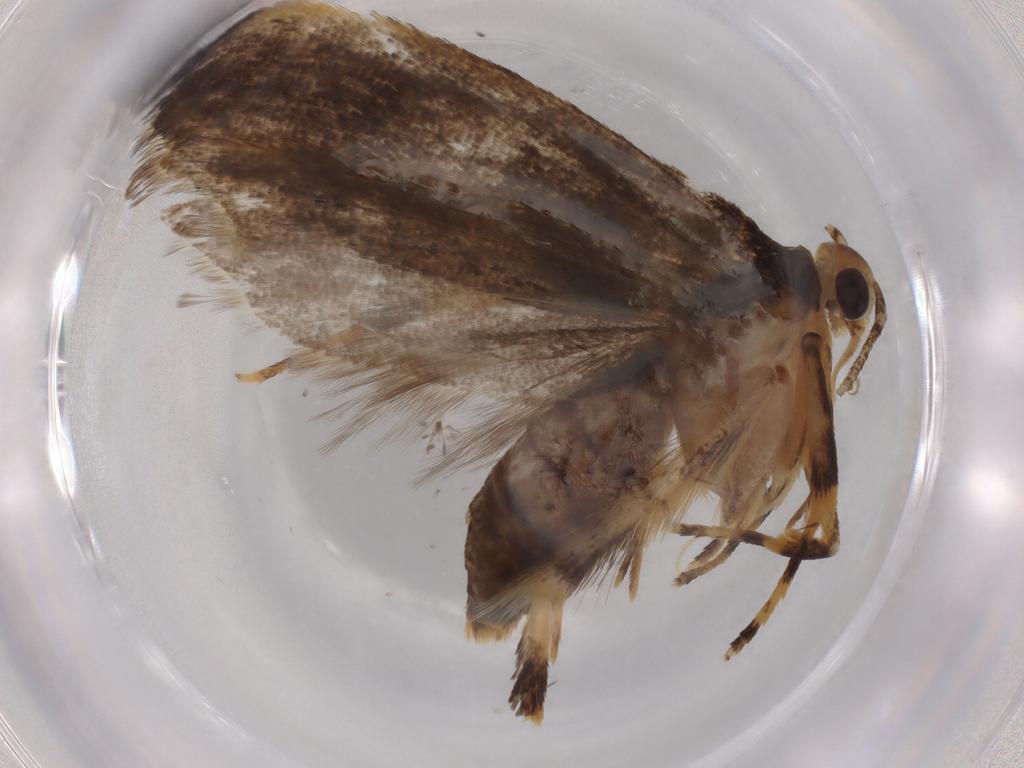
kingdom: Animalia
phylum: Arthropoda
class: Insecta
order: Lepidoptera
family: Lecithoceridae
